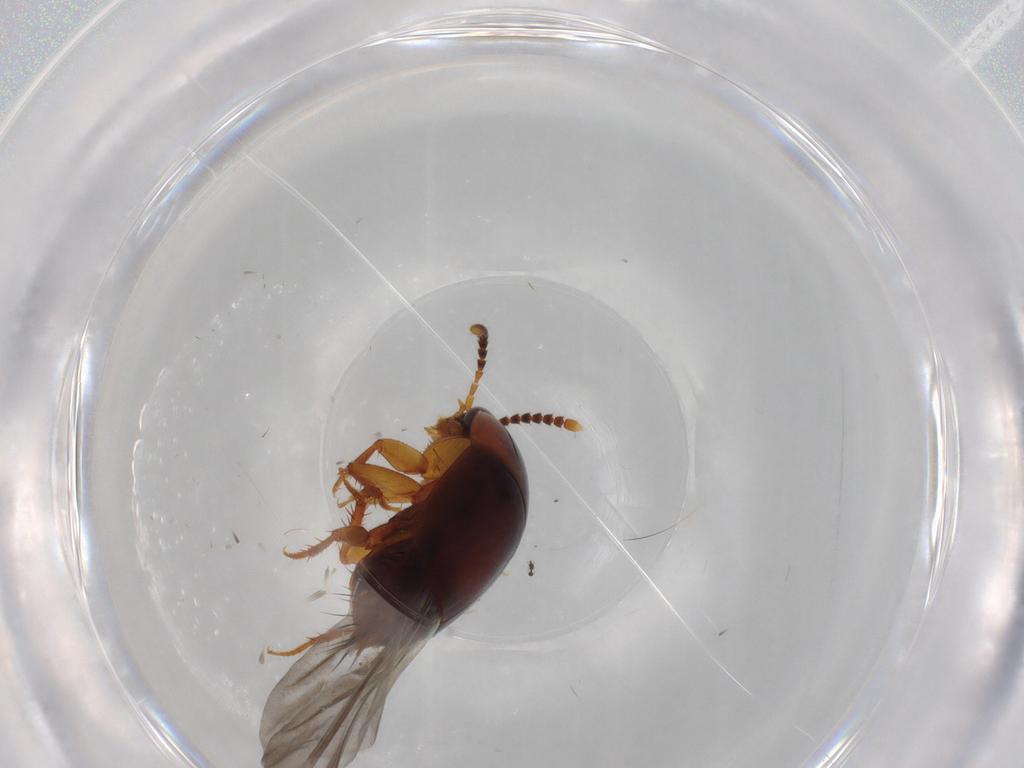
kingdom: Animalia
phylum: Arthropoda
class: Insecta
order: Coleoptera
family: Staphylinidae
